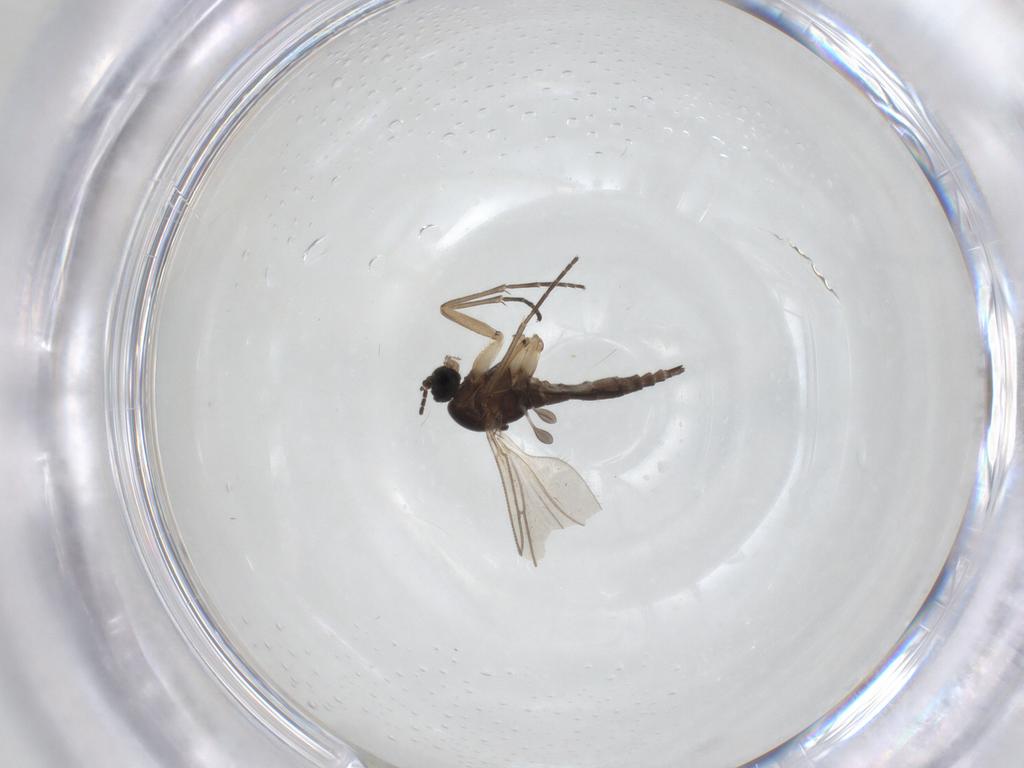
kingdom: Animalia
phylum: Arthropoda
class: Insecta
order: Diptera
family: Sciaridae
